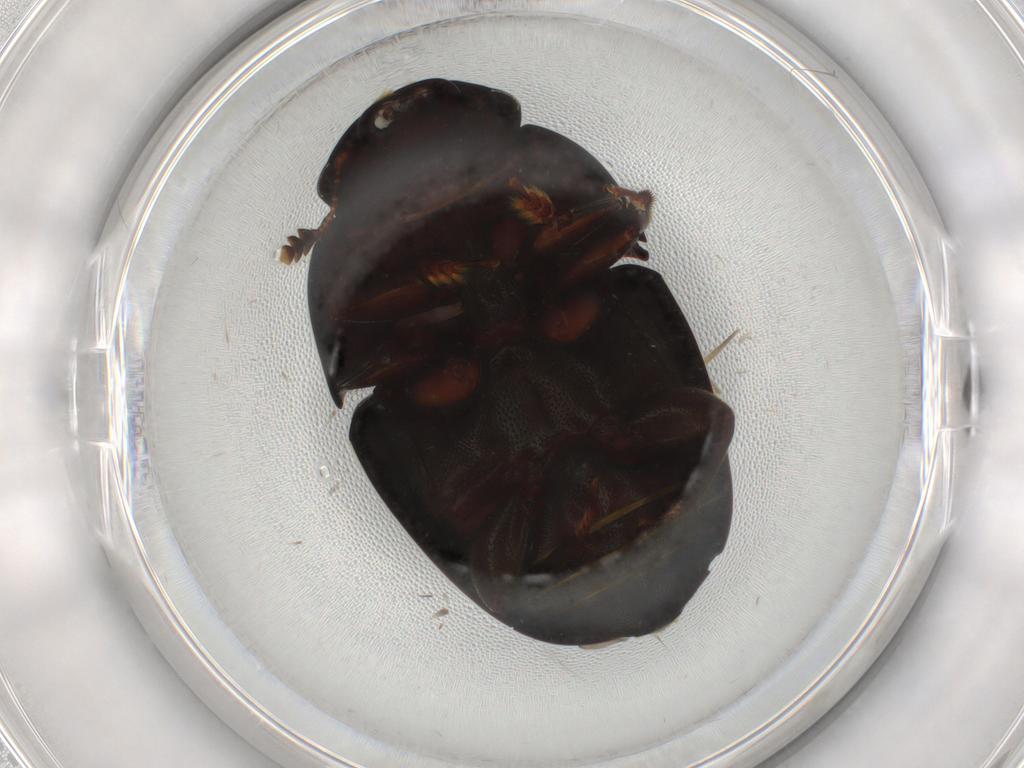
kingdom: Animalia
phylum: Arthropoda
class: Insecta
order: Coleoptera
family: Nitidulidae
